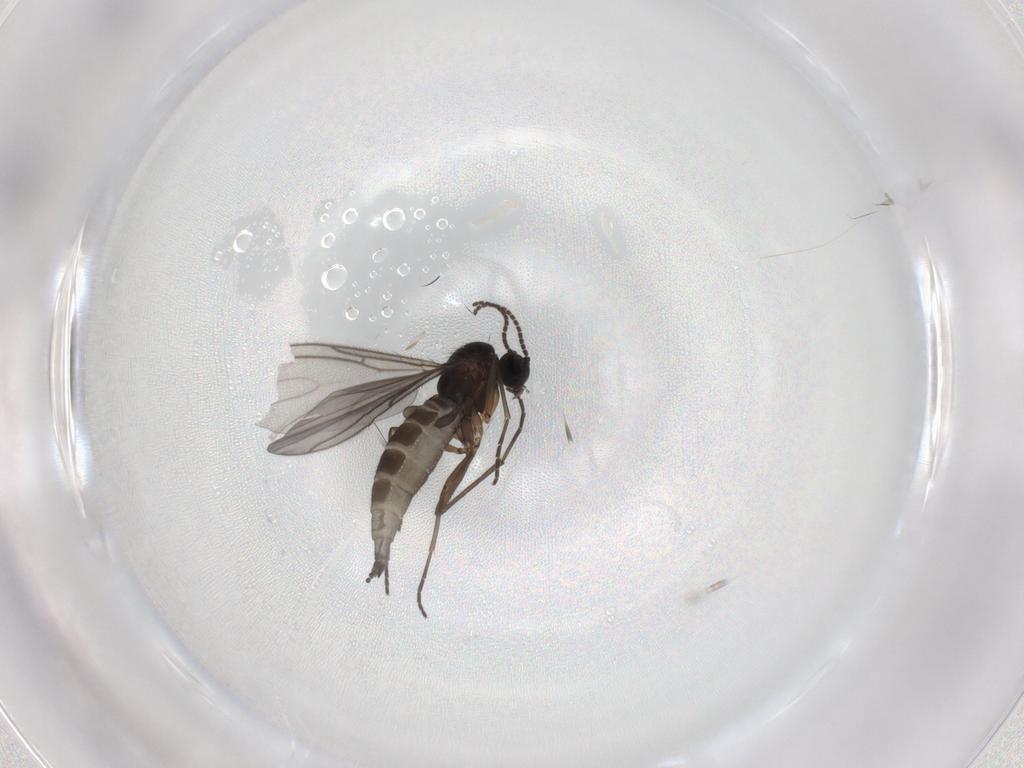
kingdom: Animalia
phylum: Arthropoda
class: Insecta
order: Diptera
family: Sciaridae
